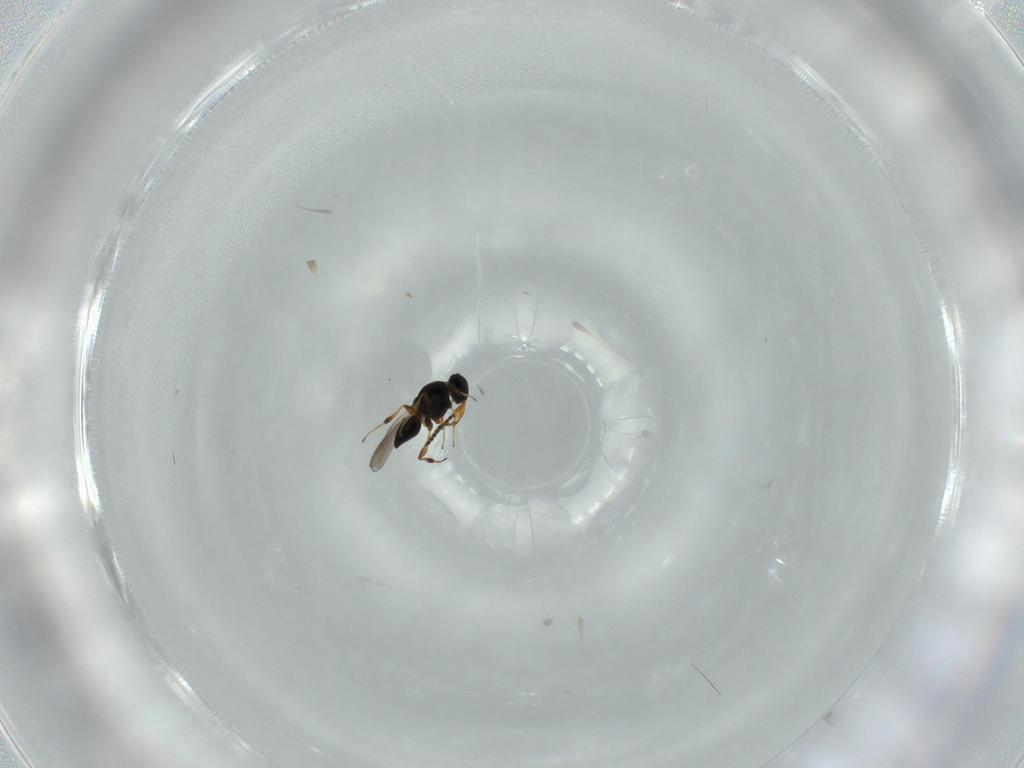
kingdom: Animalia
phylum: Arthropoda
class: Insecta
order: Hymenoptera
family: Platygastridae
